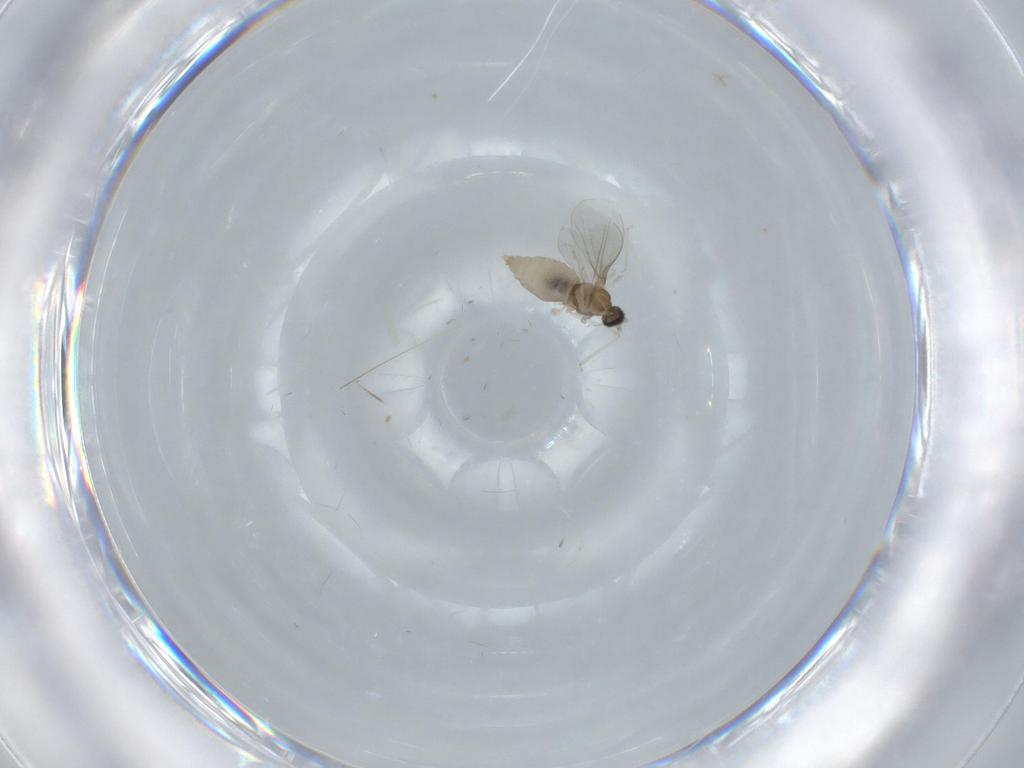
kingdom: Animalia
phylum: Arthropoda
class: Insecta
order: Diptera
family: Cecidomyiidae
